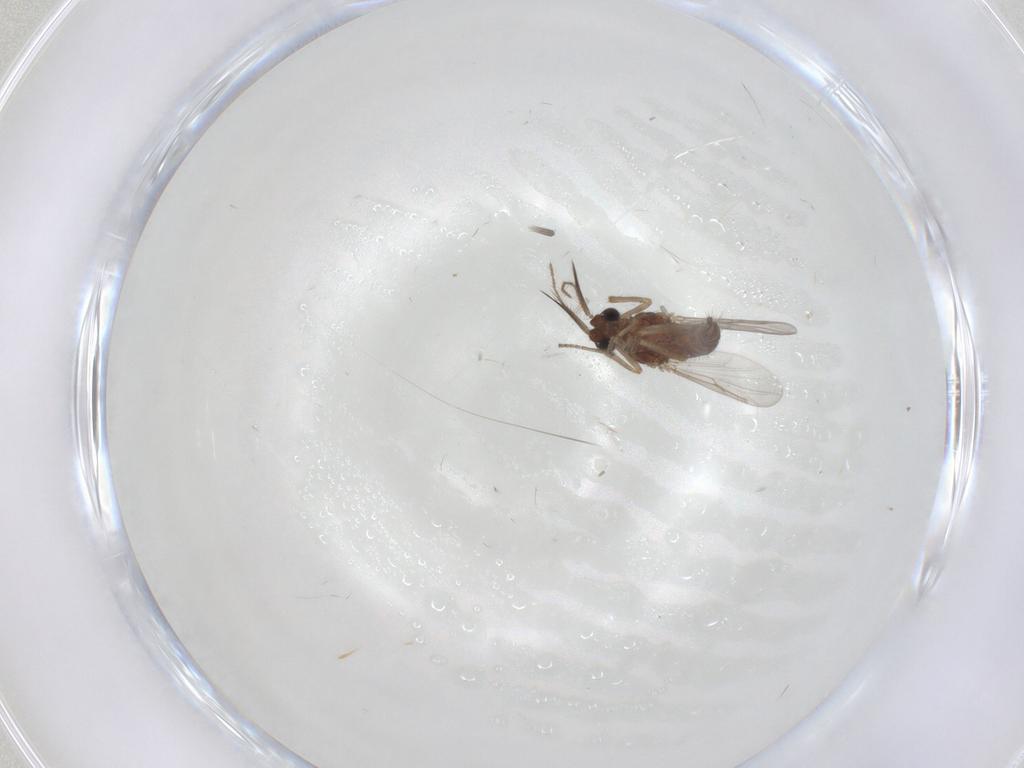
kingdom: Animalia
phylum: Arthropoda
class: Insecta
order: Diptera
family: Ceratopogonidae
